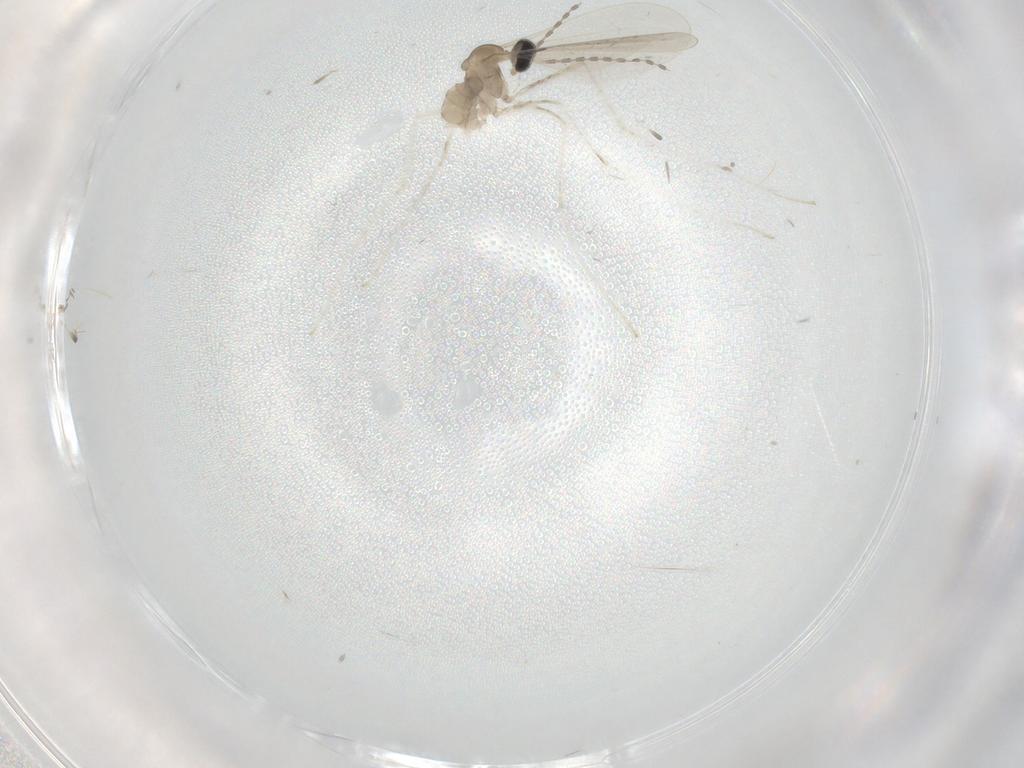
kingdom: Animalia
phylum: Arthropoda
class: Insecta
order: Diptera
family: Cecidomyiidae
